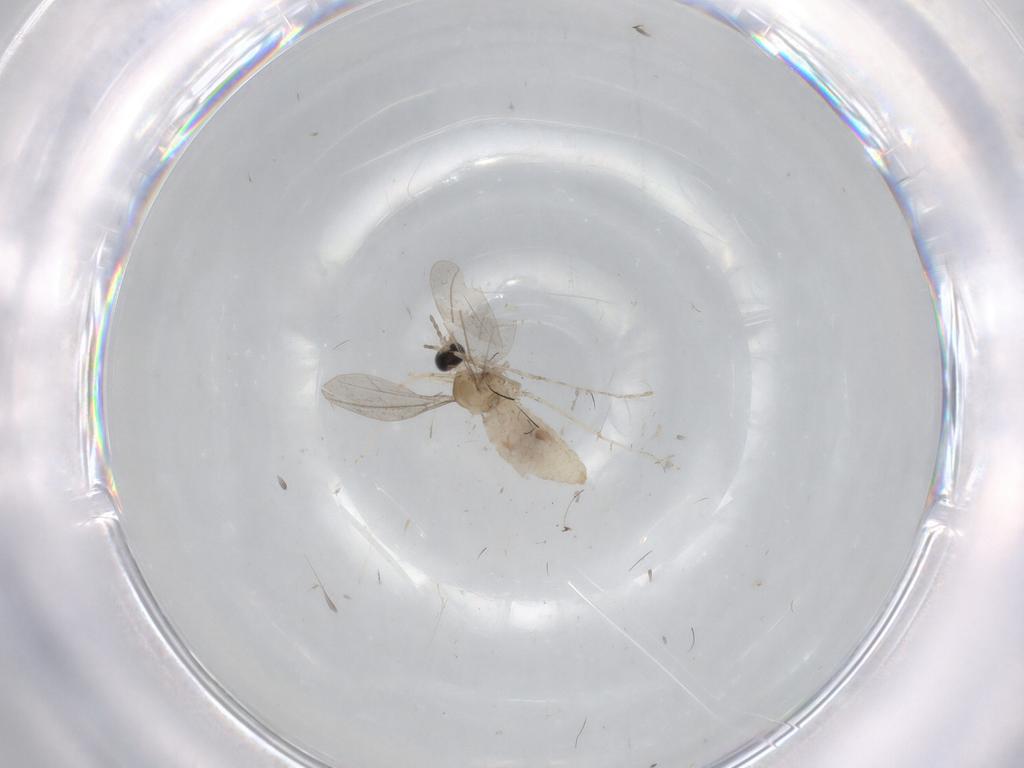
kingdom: Animalia
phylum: Arthropoda
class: Insecta
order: Diptera
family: Cecidomyiidae
